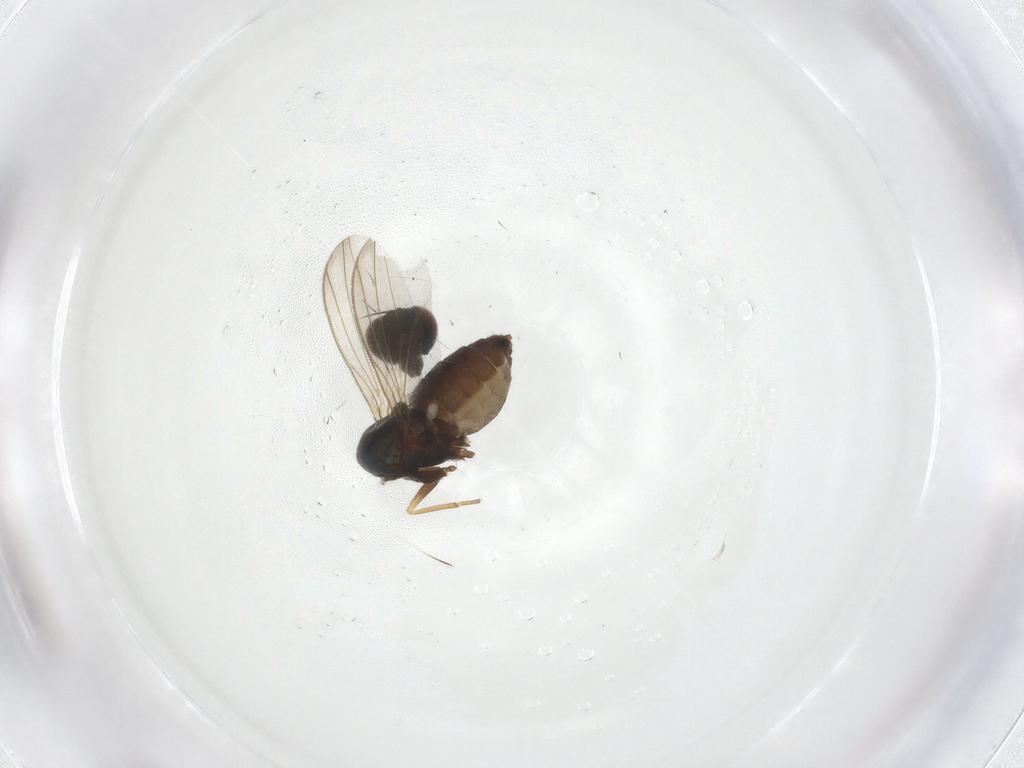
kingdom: Animalia
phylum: Arthropoda
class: Insecta
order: Diptera
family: Dolichopodidae
